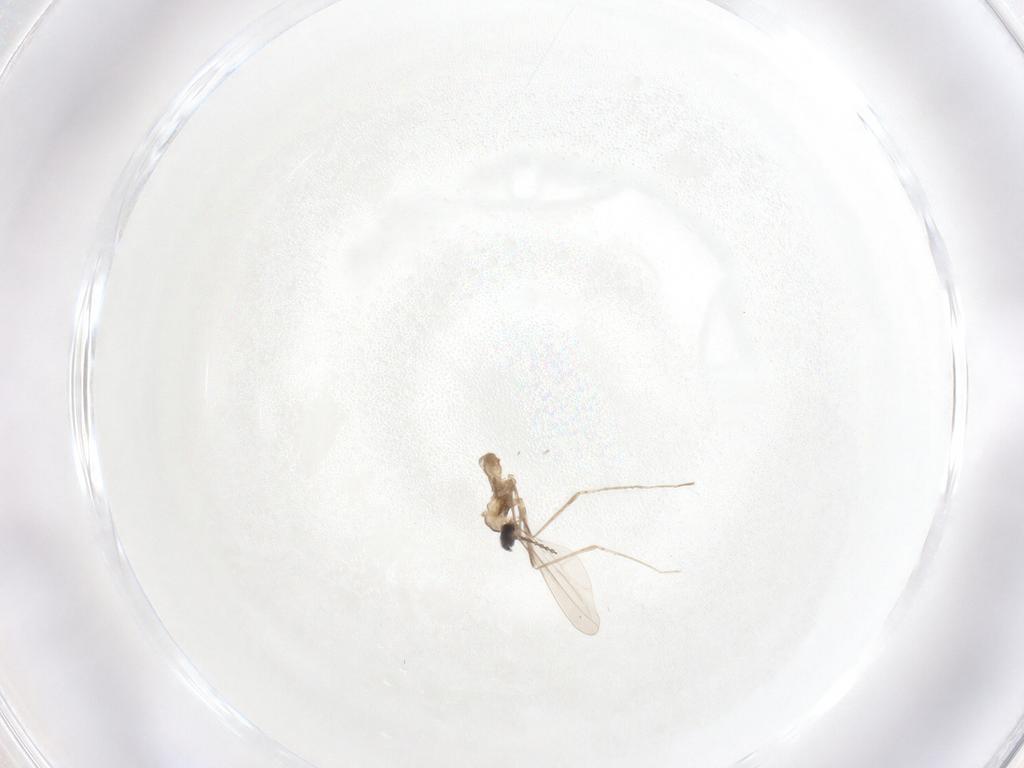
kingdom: Animalia
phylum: Arthropoda
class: Insecta
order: Diptera
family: Cecidomyiidae
